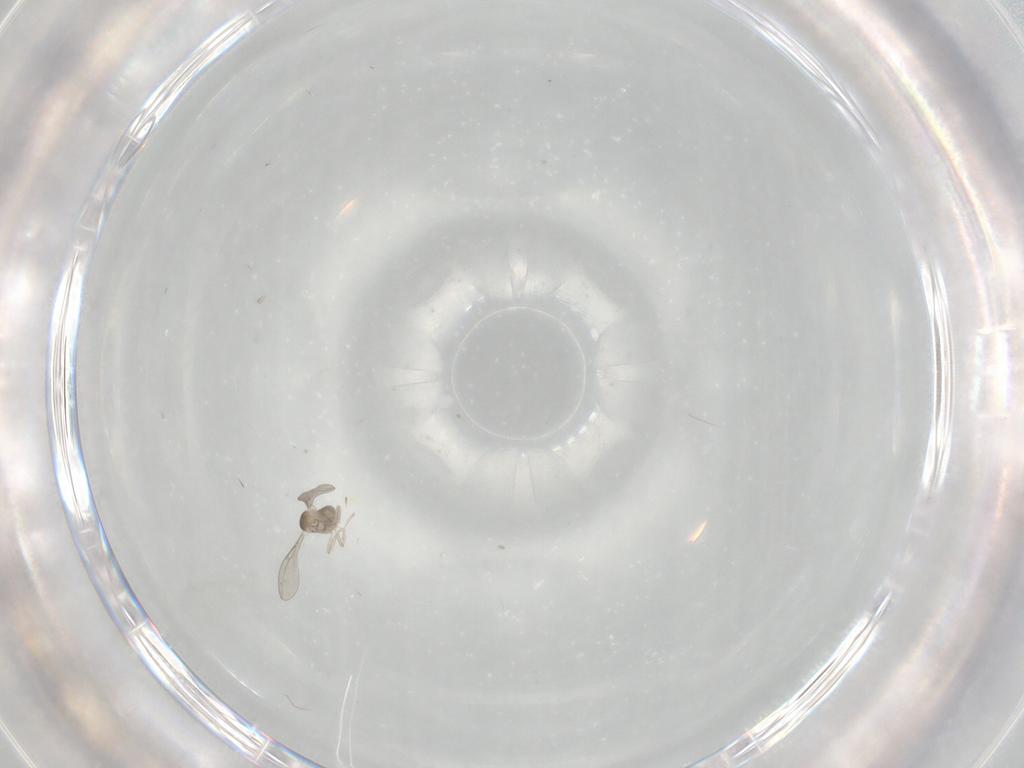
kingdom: Animalia
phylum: Arthropoda
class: Insecta
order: Diptera
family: Cecidomyiidae
